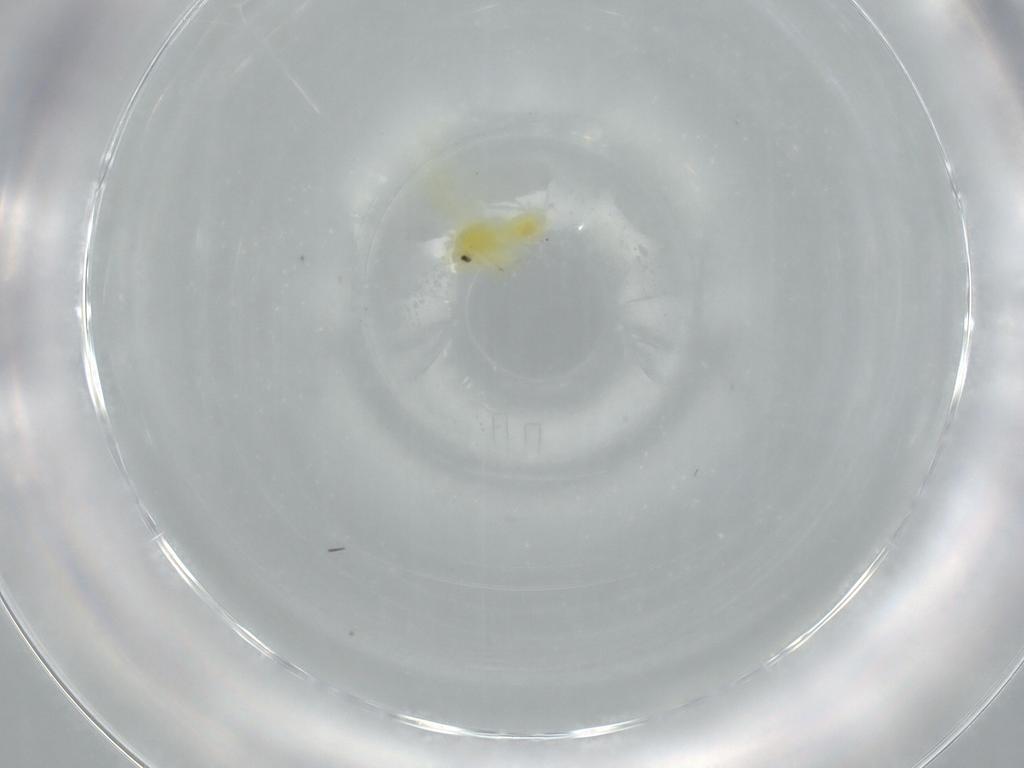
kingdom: Animalia
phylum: Arthropoda
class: Insecta
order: Hemiptera
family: Aleyrodidae
